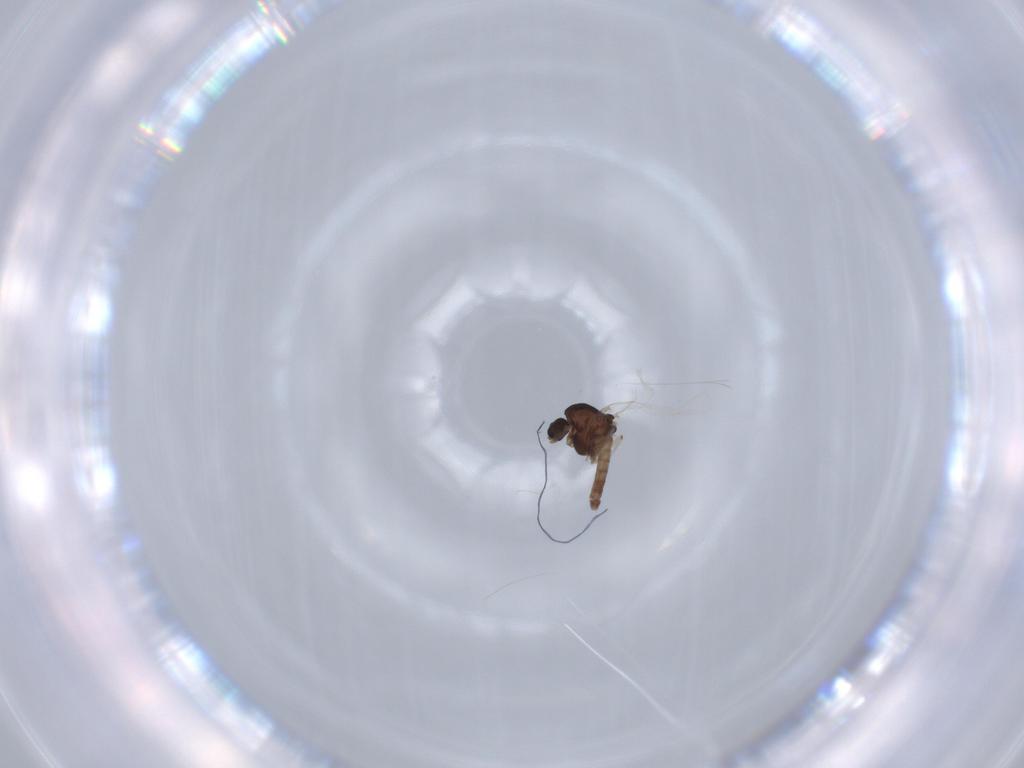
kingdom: Animalia
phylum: Arthropoda
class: Insecta
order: Diptera
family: Chironomidae
